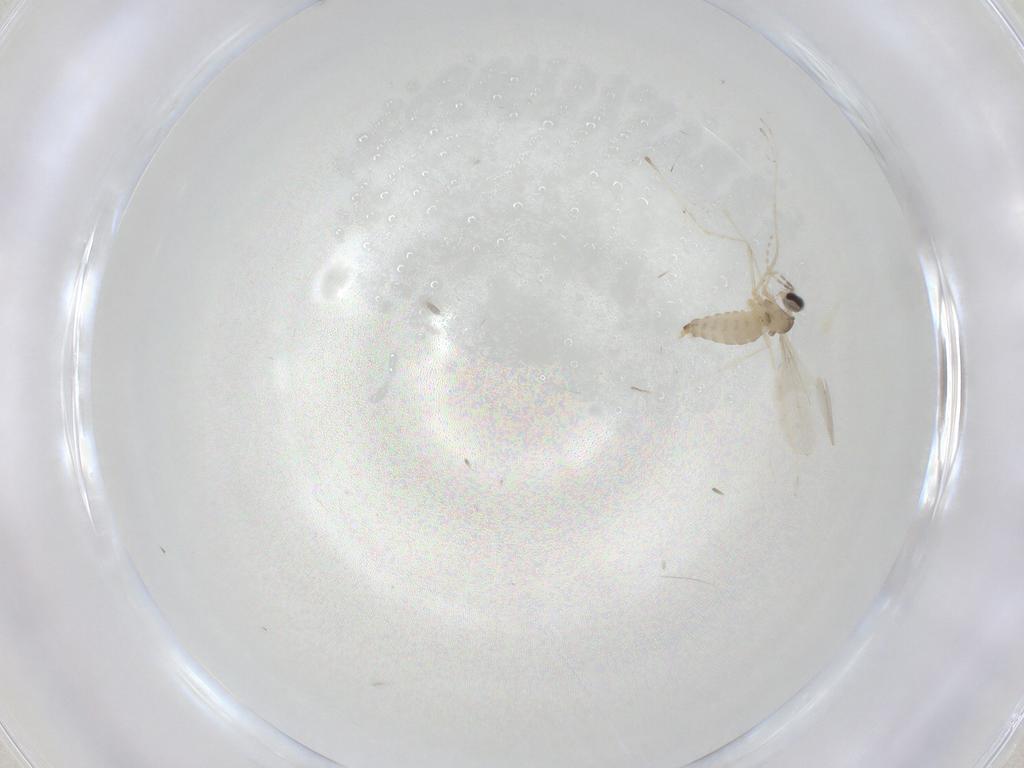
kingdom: Animalia
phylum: Arthropoda
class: Insecta
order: Diptera
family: Cecidomyiidae
